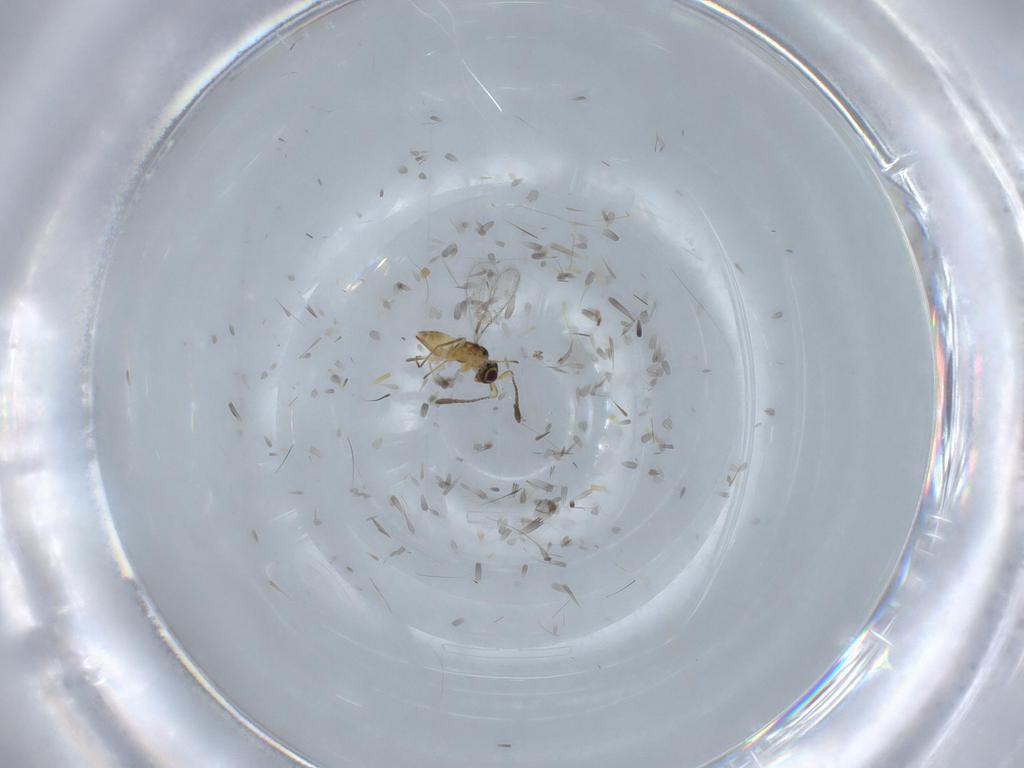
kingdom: Animalia
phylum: Arthropoda
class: Insecta
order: Hymenoptera
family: Mymaridae
